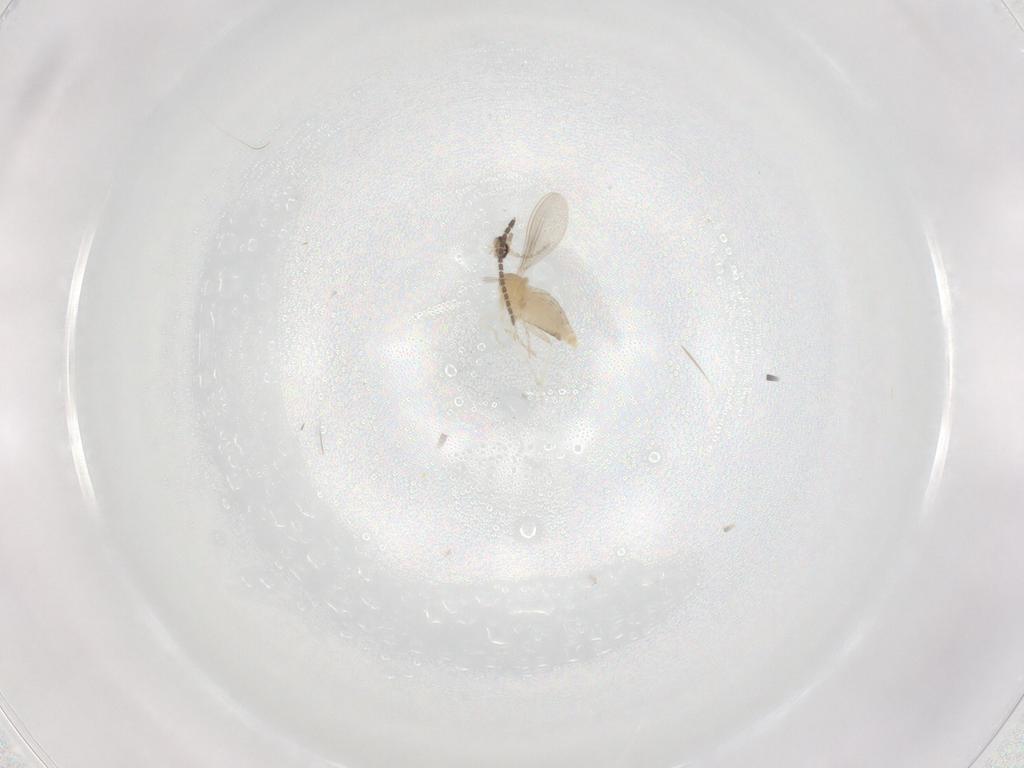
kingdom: Animalia
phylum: Arthropoda
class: Insecta
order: Diptera
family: Cecidomyiidae
